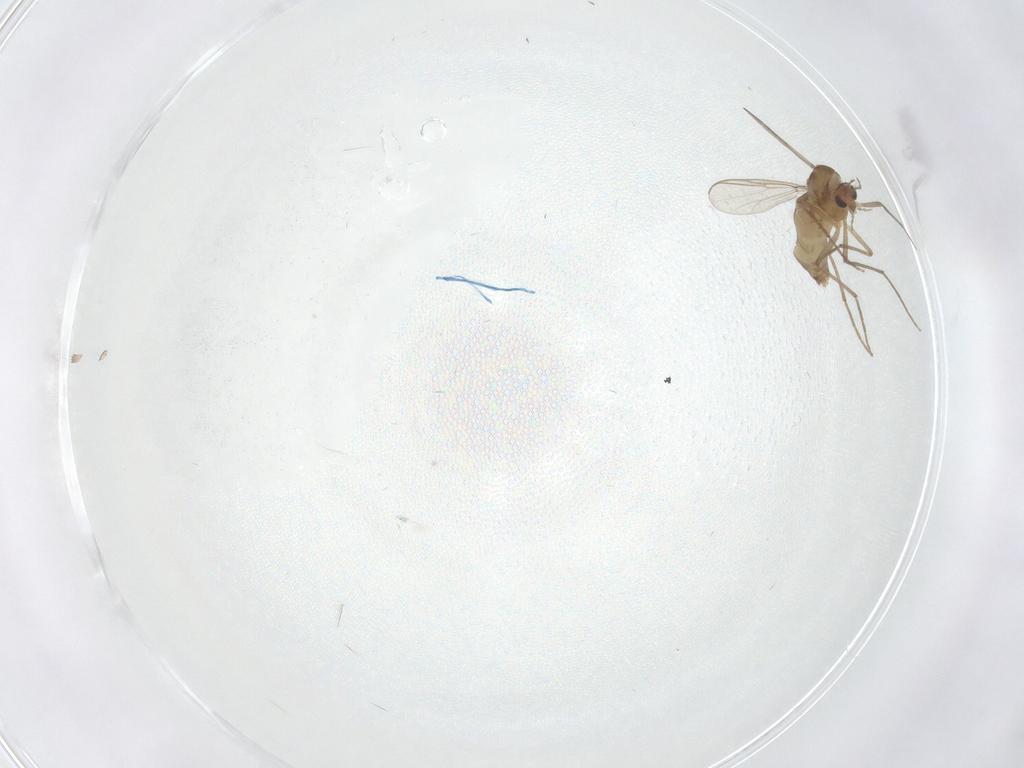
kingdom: Animalia
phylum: Arthropoda
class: Insecta
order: Diptera
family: Chironomidae
